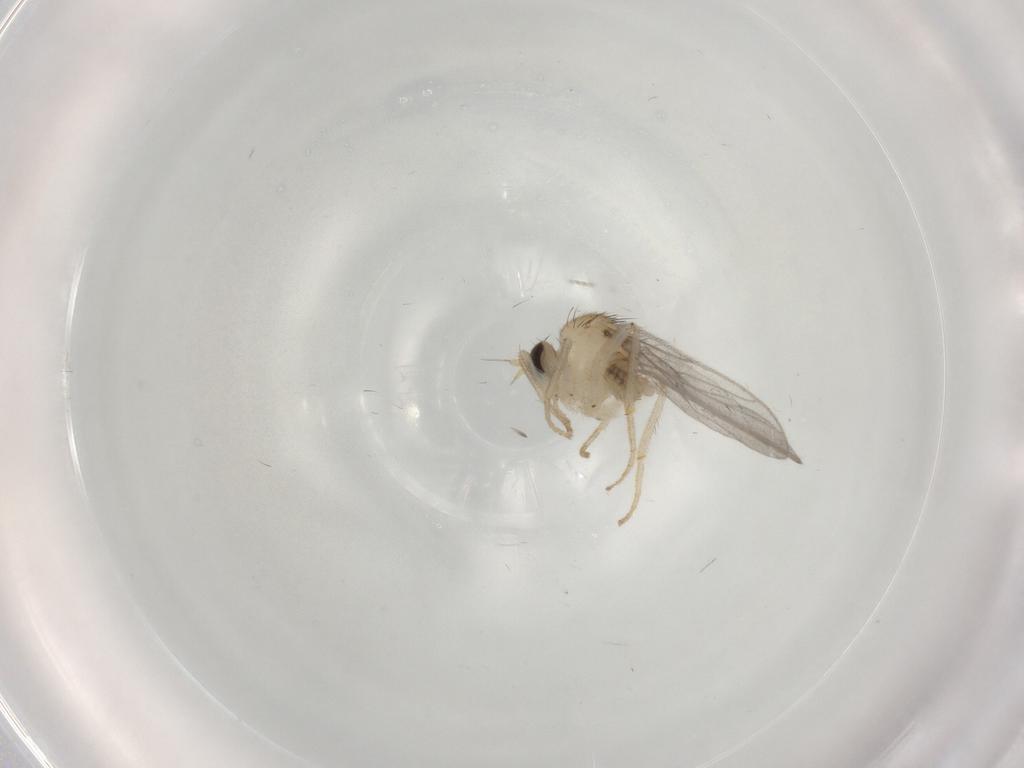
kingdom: Animalia
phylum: Arthropoda
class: Insecta
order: Diptera
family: Hybotidae
